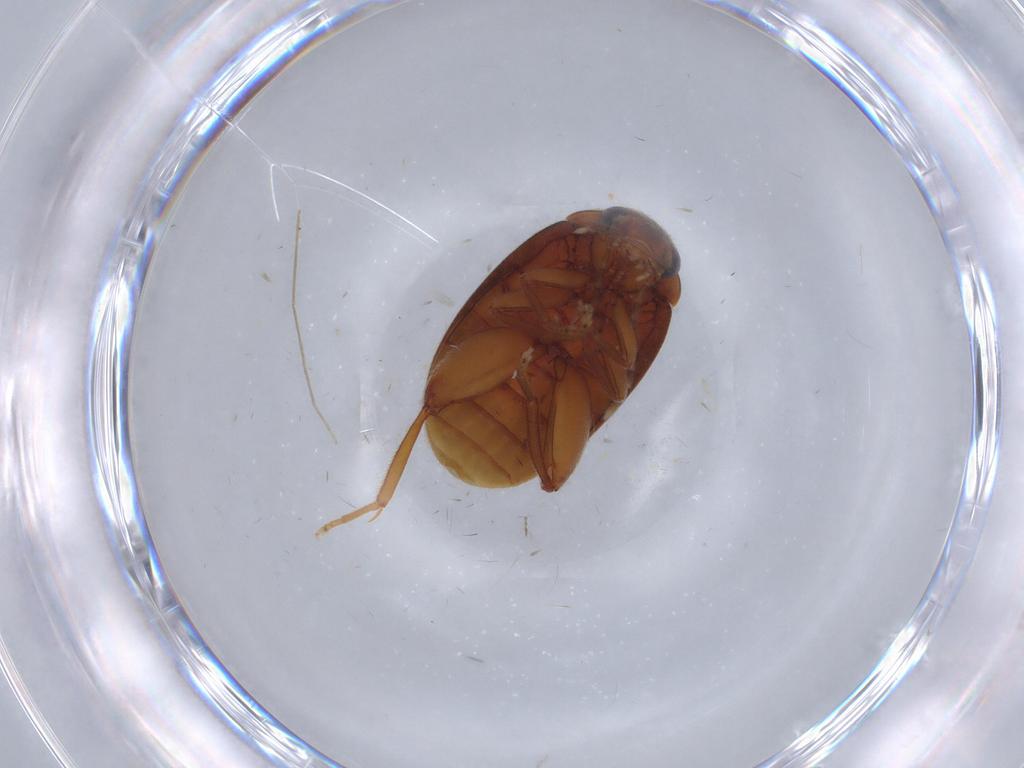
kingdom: Animalia
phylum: Arthropoda
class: Insecta
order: Coleoptera
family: Scirtidae
